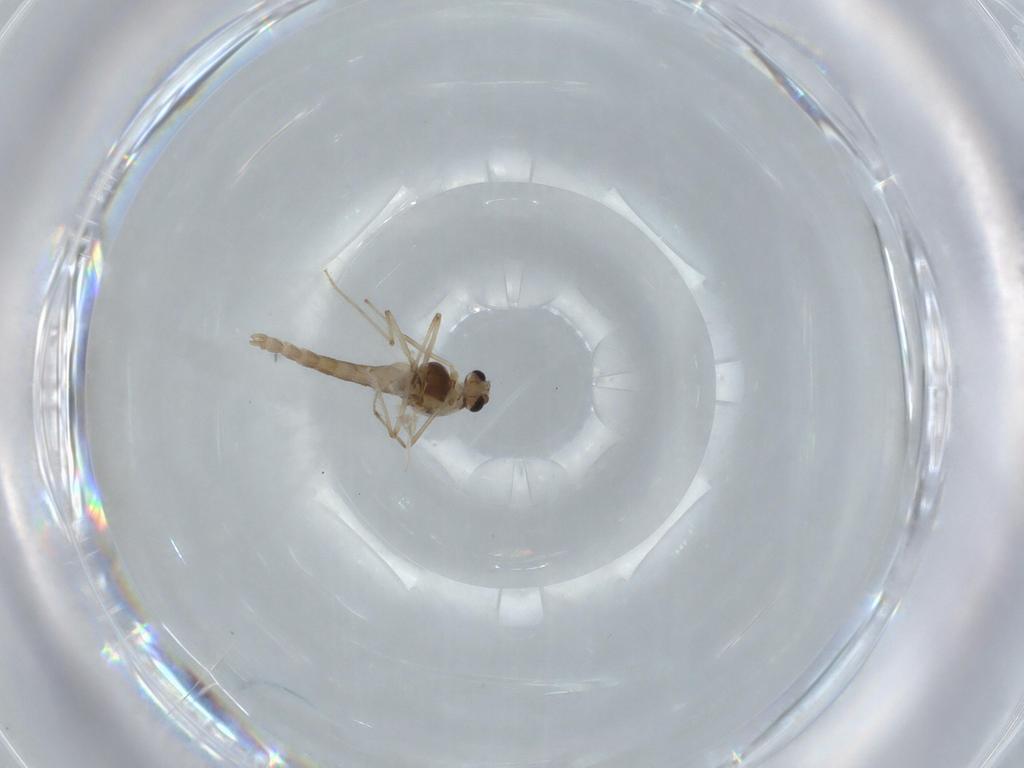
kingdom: Animalia
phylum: Arthropoda
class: Insecta
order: Diptera
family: Chironomidae
